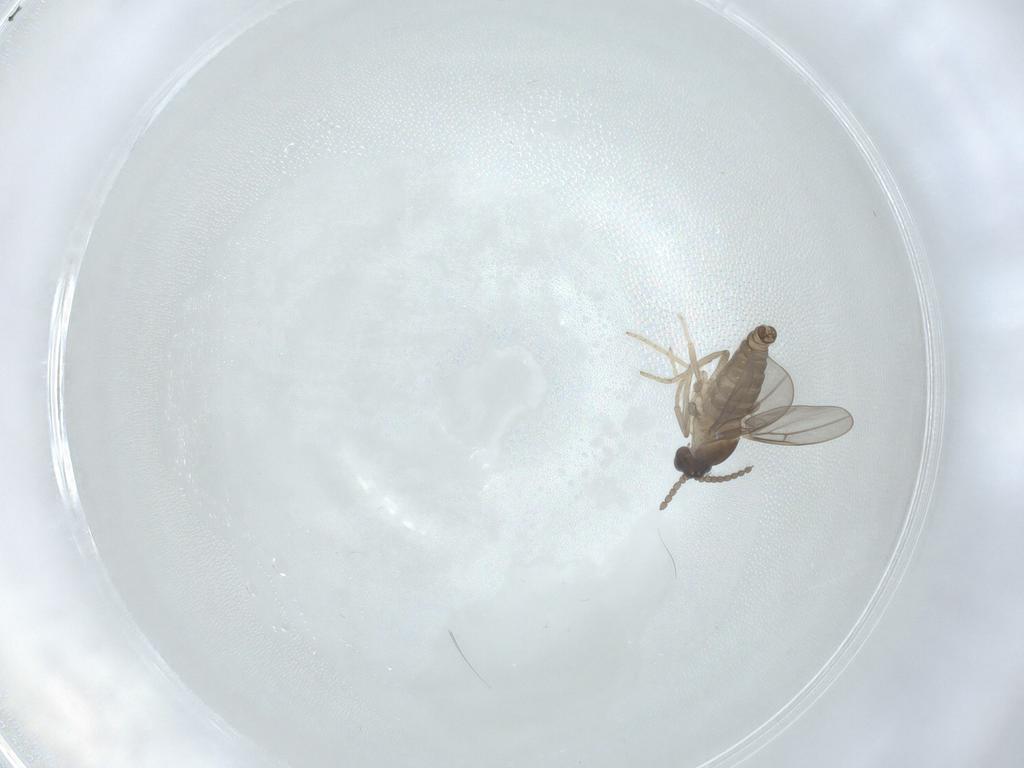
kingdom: Animalia
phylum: Arthropoda
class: Insecta
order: Diptera
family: Cecidomyiidae
